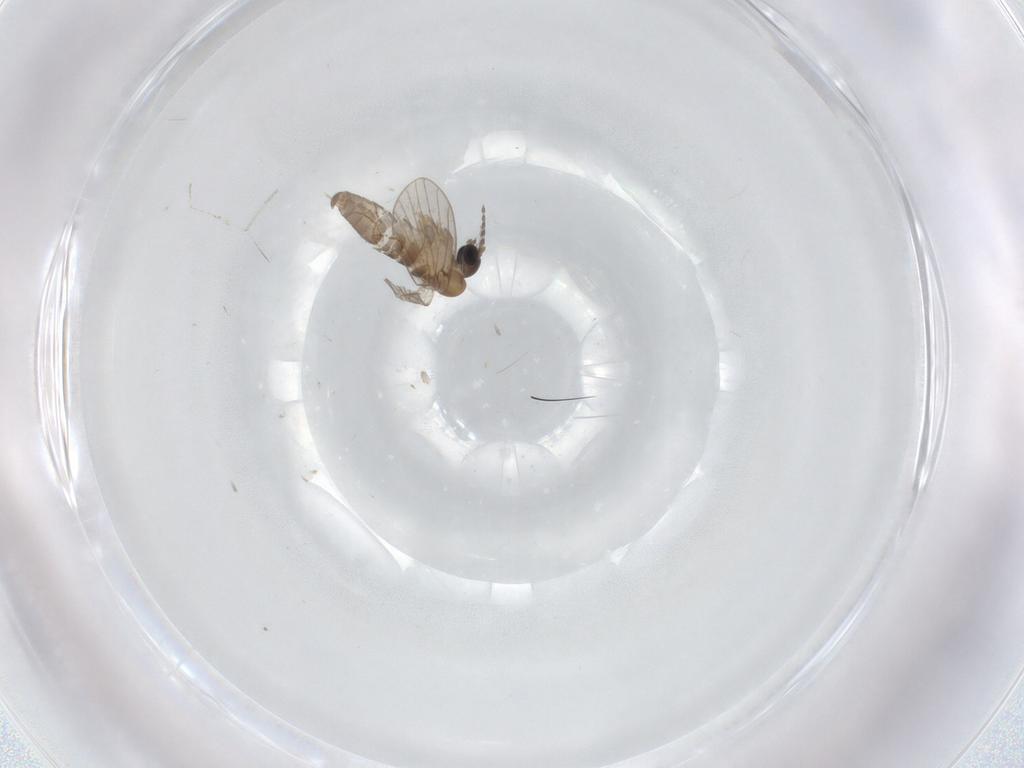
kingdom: Animalia
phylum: Arthropoda
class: Insecta
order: Diptera
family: Psychodidae
